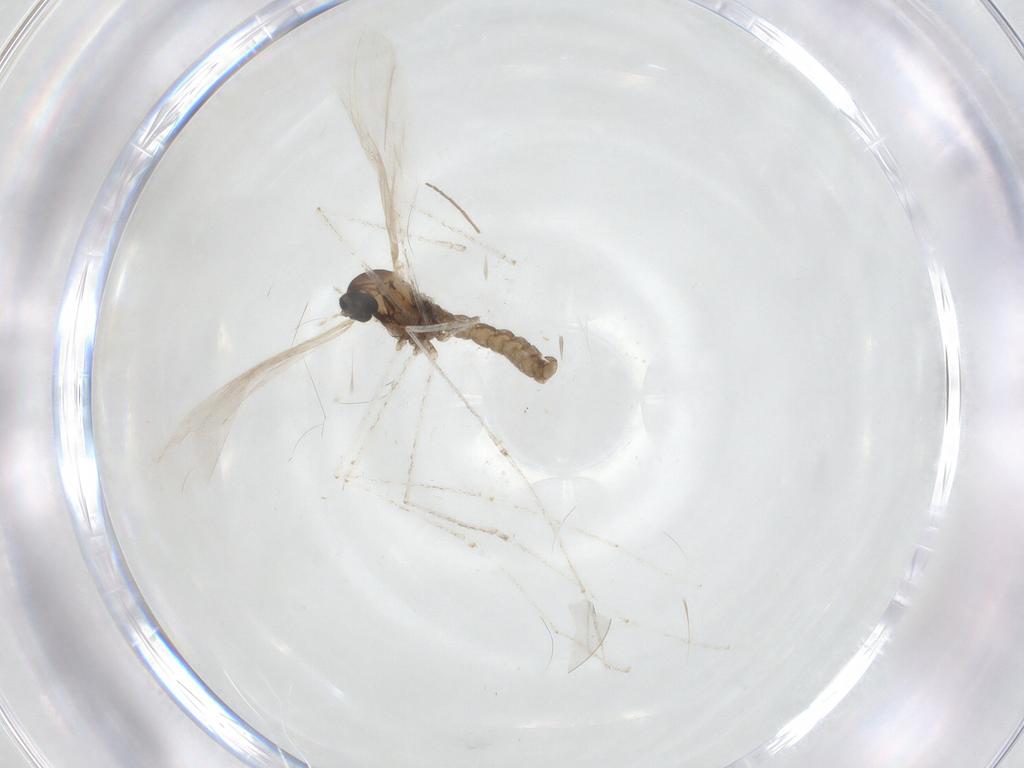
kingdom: Animalia
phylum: Arthropoda
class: Insecta
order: Diptera
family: Cecidomyiidae
